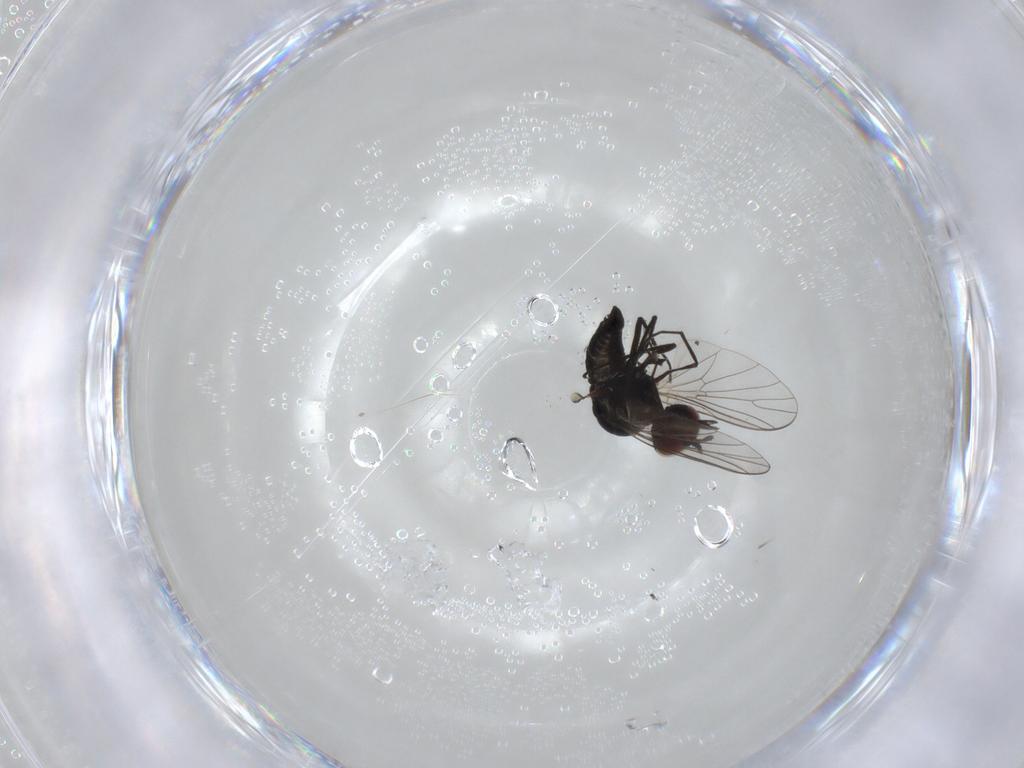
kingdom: Animalia
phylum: Arthropoda
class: Insecta
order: Diptera
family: Bombyliidae
